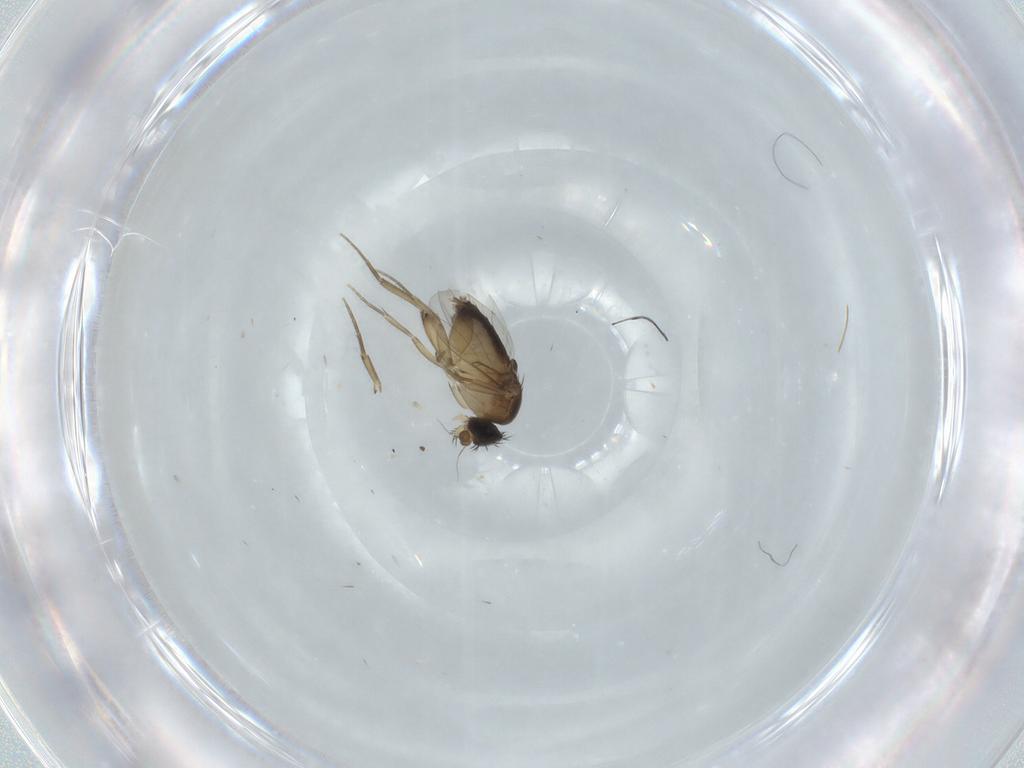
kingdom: Animalia
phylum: Arthropoda
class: Insecta
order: Diptera
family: Phoridae
